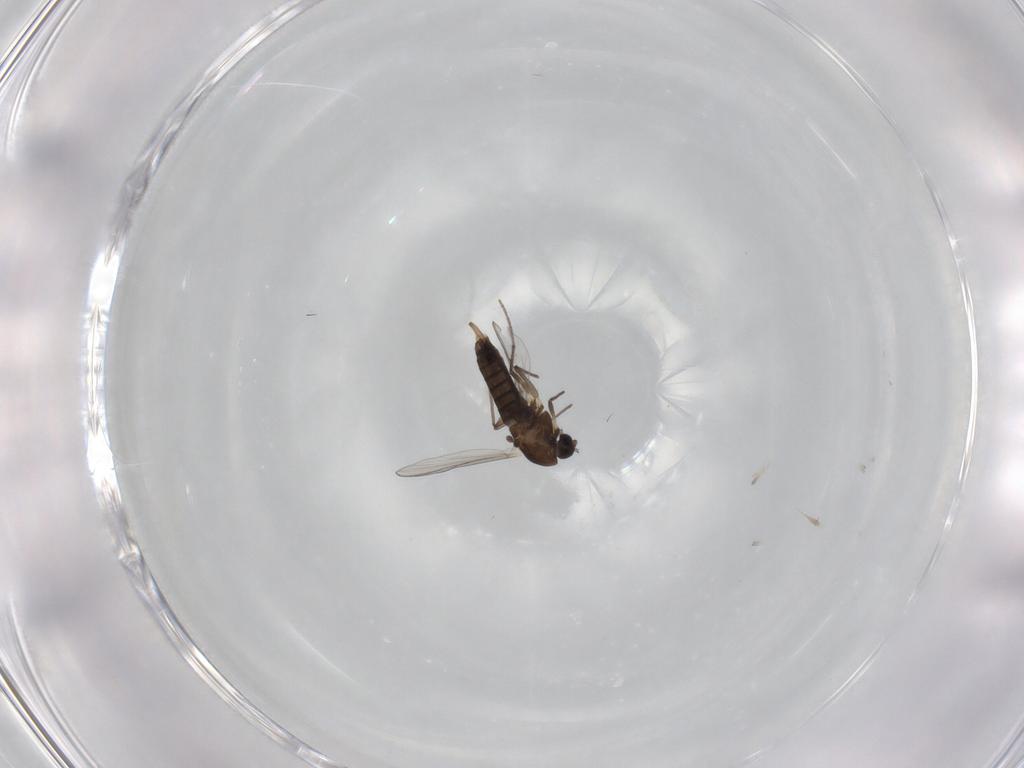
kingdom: Animalia
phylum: Arthropoda
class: Insecta
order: Diptera
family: Chironomidae
